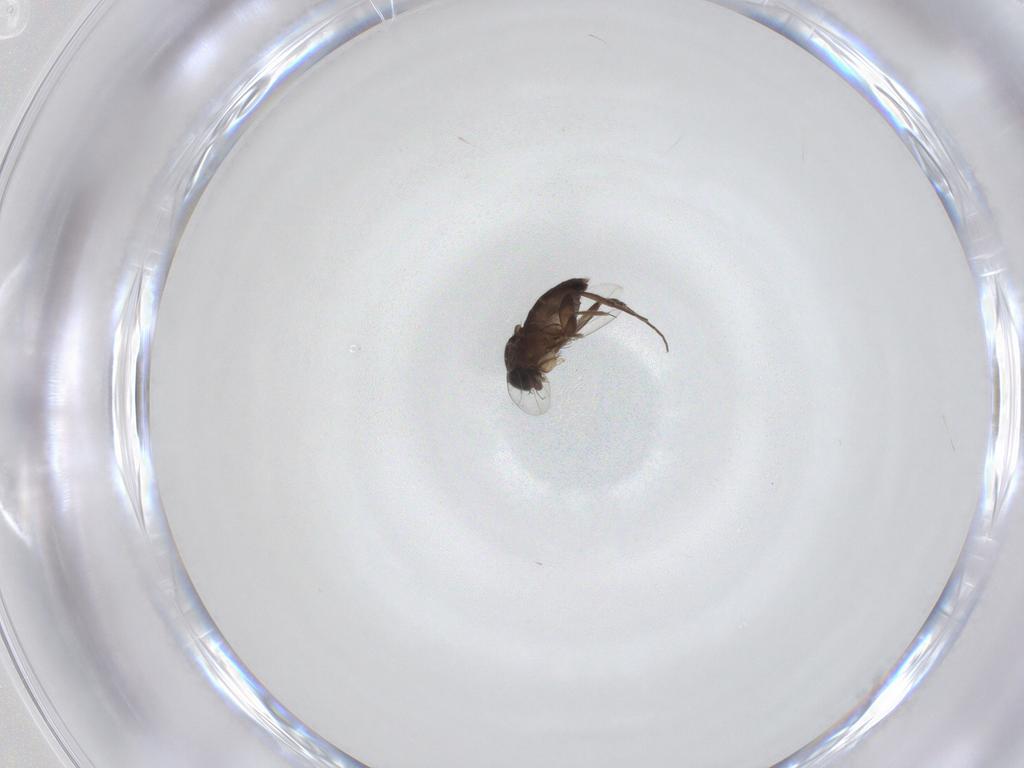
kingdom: Animalia
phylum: Arthropoda
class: Insecta
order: Diptera
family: Phoridae
